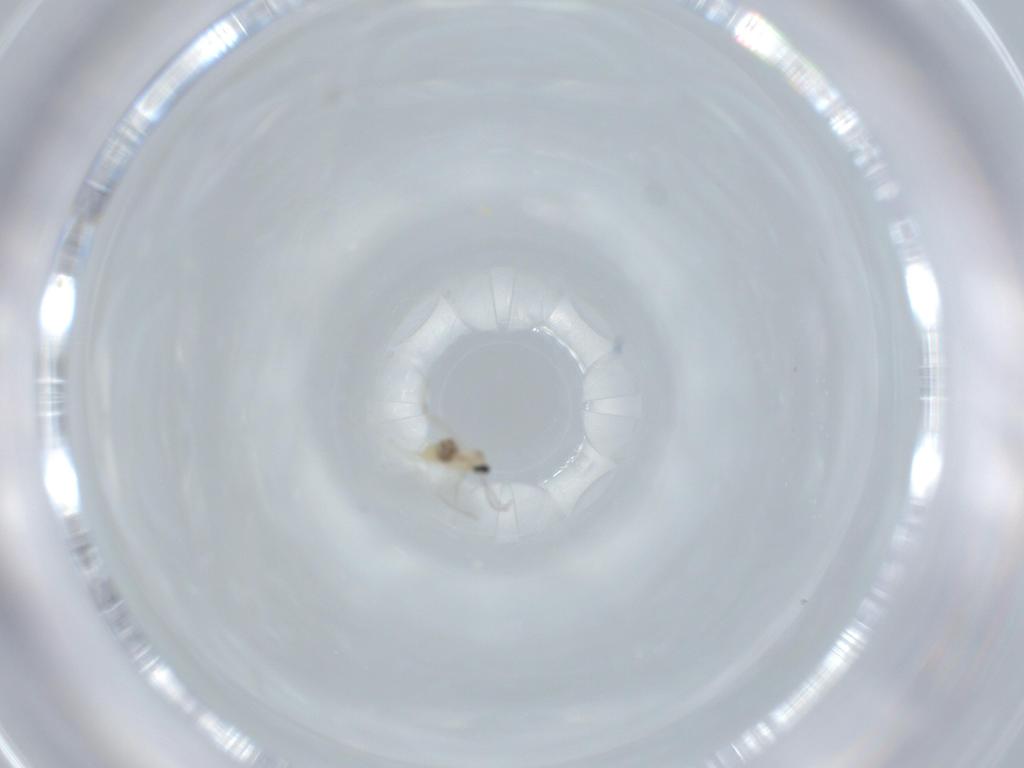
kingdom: Animalia
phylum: Arthropoda
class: Insecta
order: Diptera
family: Cecidomyiidae
